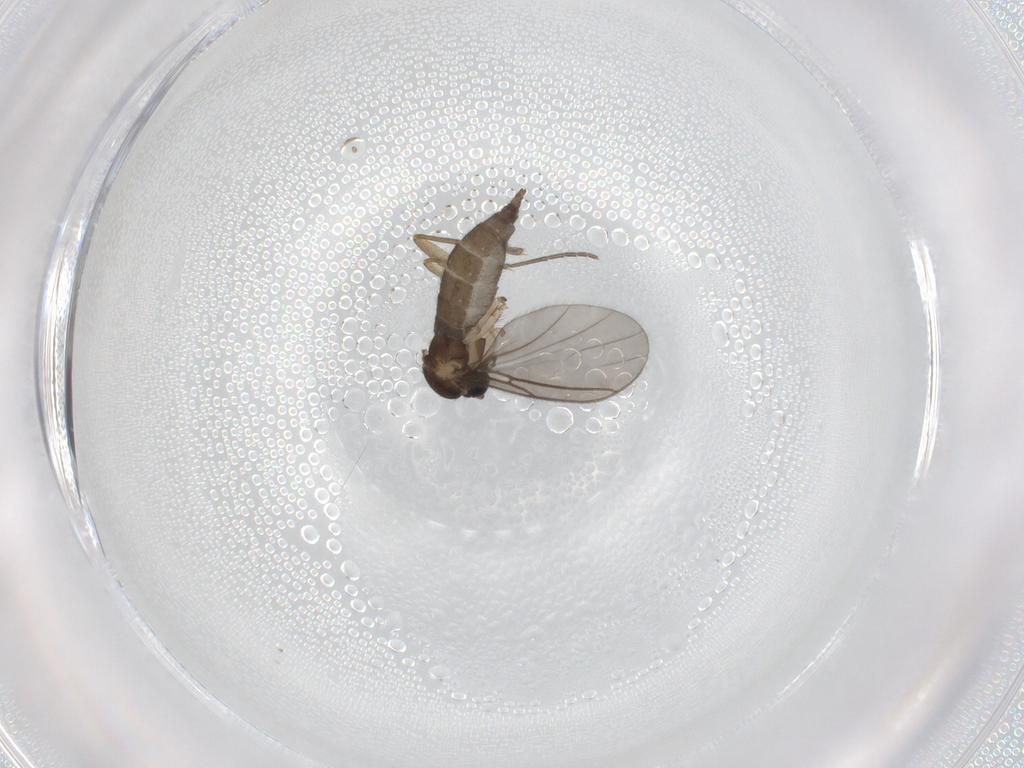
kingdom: Animalia
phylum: Arthropoda
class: Insecta
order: Diptera
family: Sciaridae
